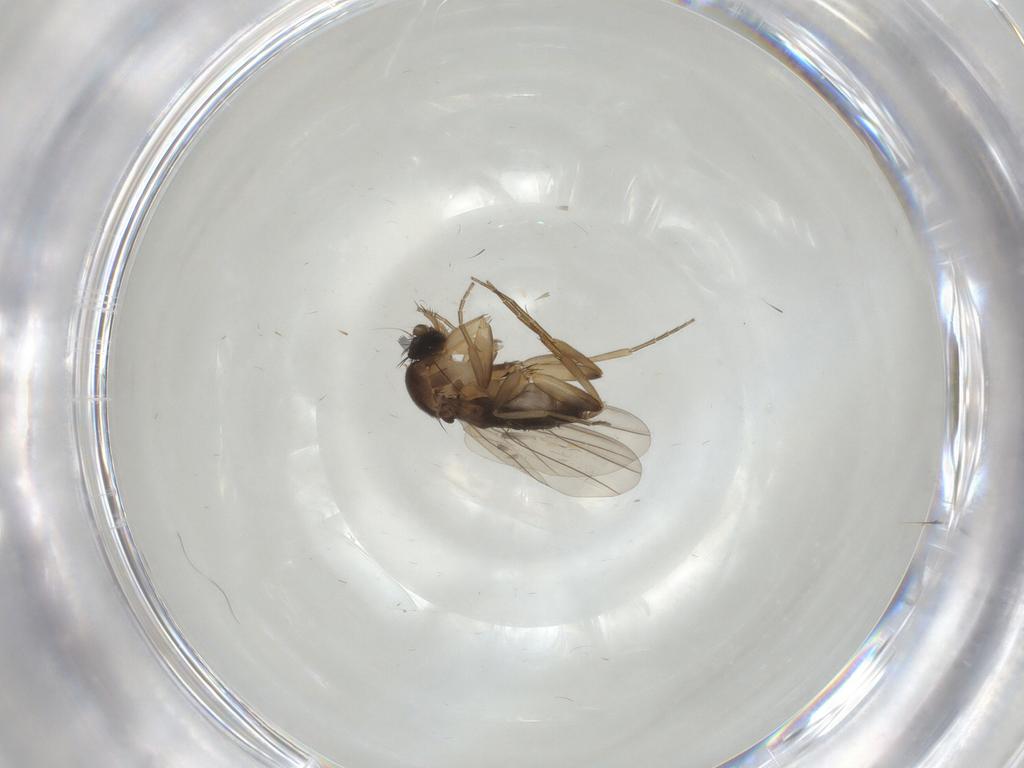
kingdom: Animalia
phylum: Arthropoda
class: Insecta
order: Diptera
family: Phoridae
